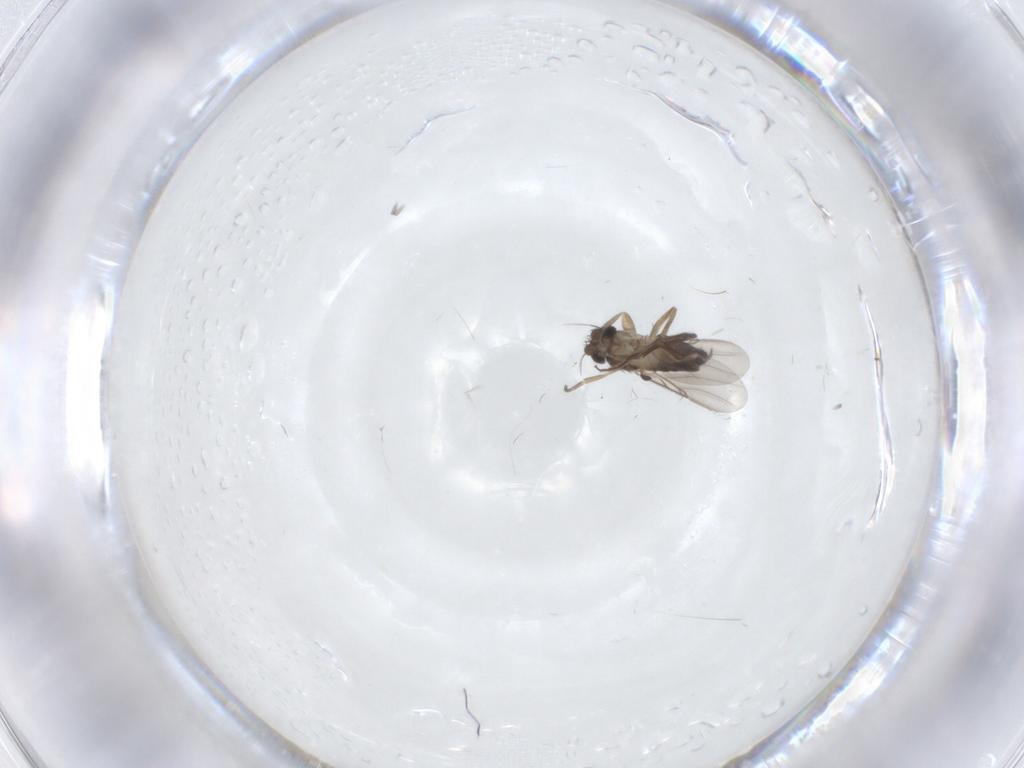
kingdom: Animalia
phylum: Arthropoda
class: Insecta
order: Diptera
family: Phoridae
